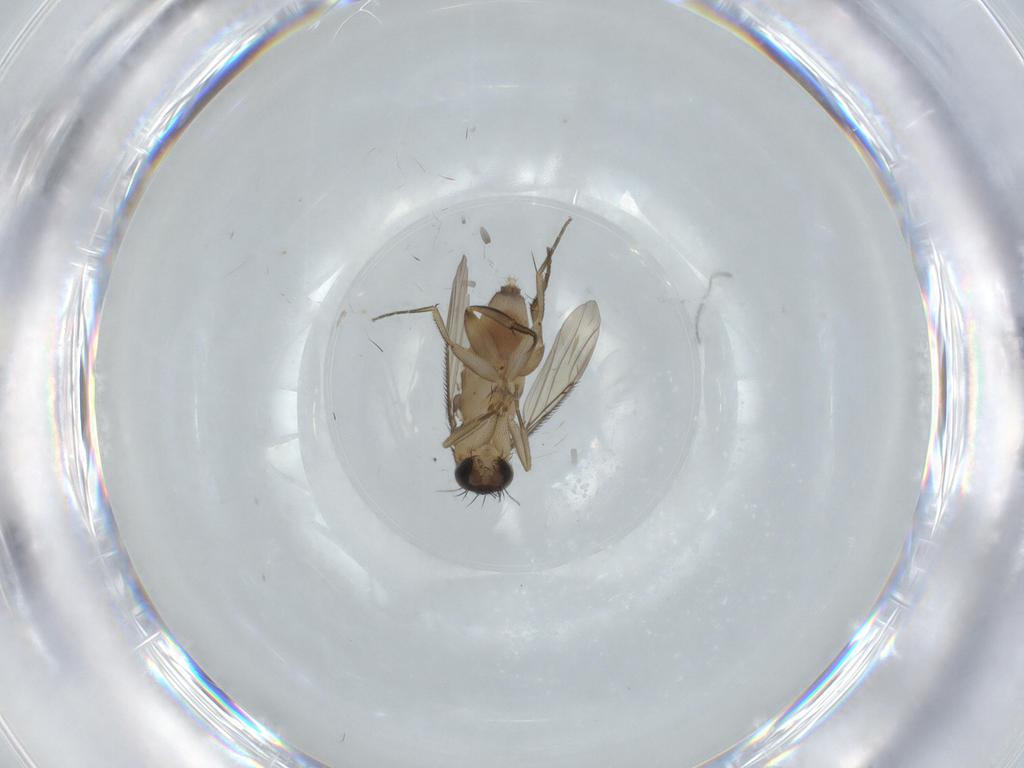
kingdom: Animalia
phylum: Arthropoda
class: Insecta
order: Diptera
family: Phoridae
